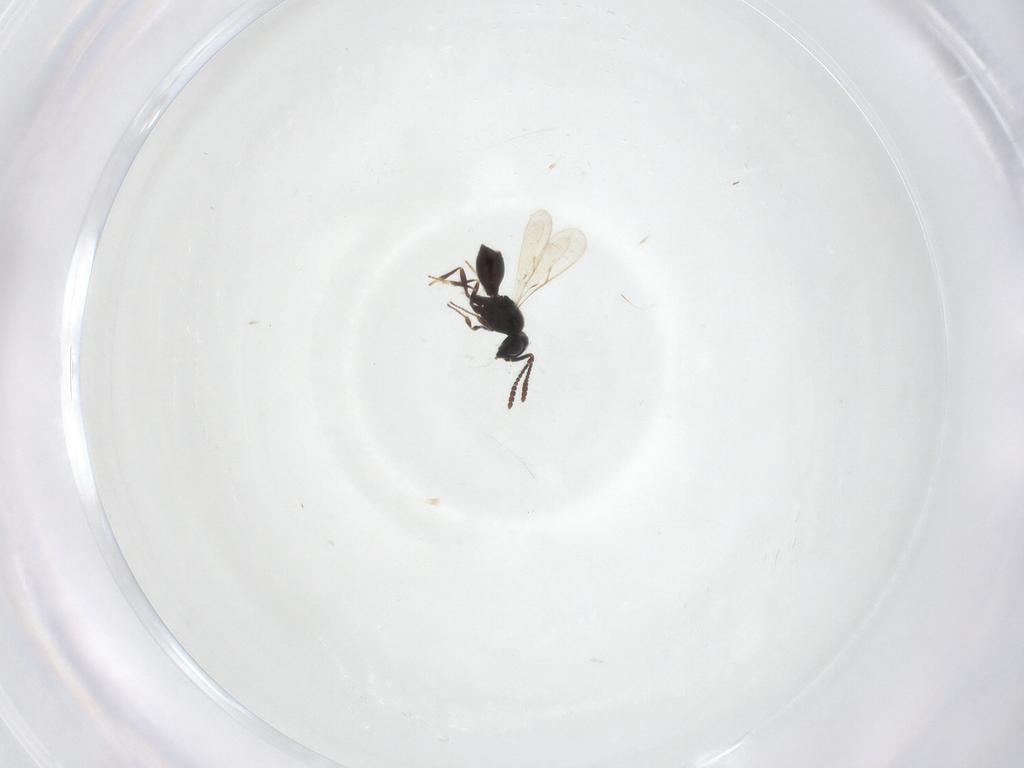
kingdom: Animalia
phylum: Arthropoda
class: Insecta
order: Hymenoptera
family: Scelionidae
